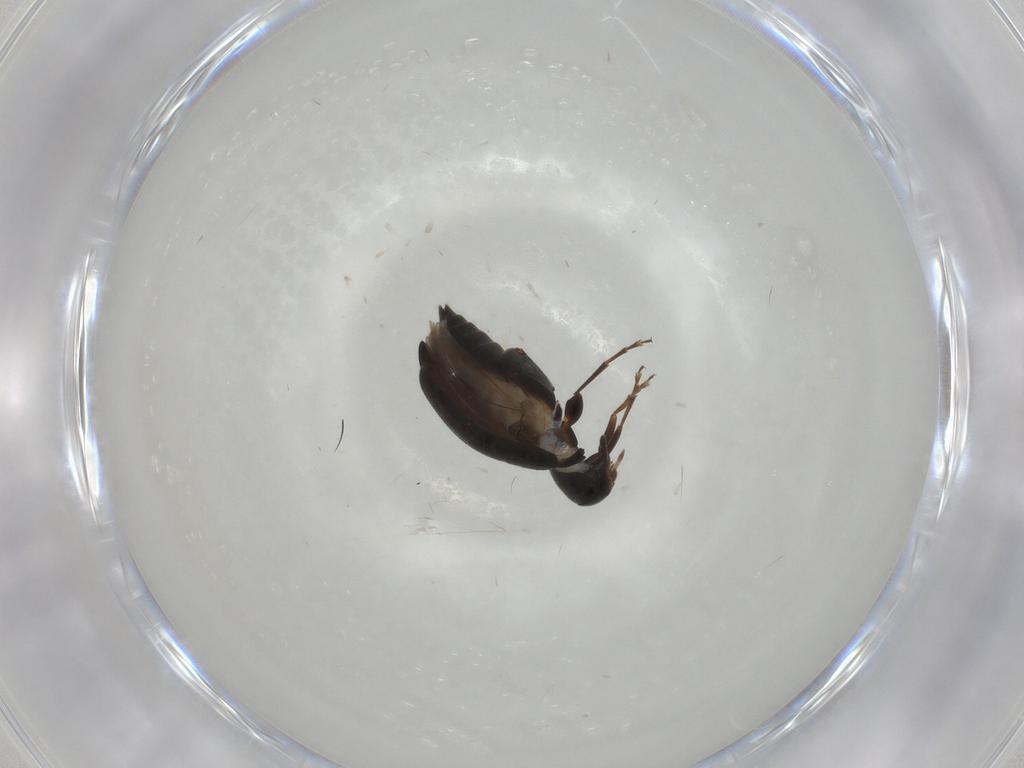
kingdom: Animalia
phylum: Arthropoda
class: Insecta
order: Coleoptera
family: Scraptiidae
